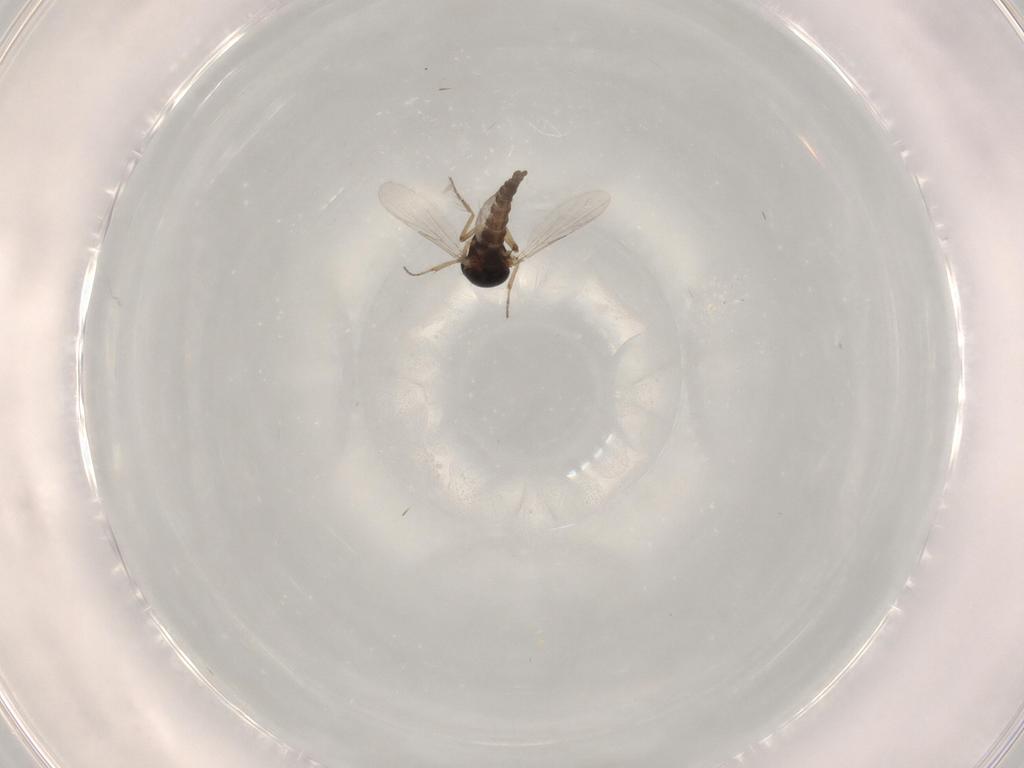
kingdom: Animalia
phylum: Arthropoda
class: Insecta
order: Diptera
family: Ceratopogonidae
